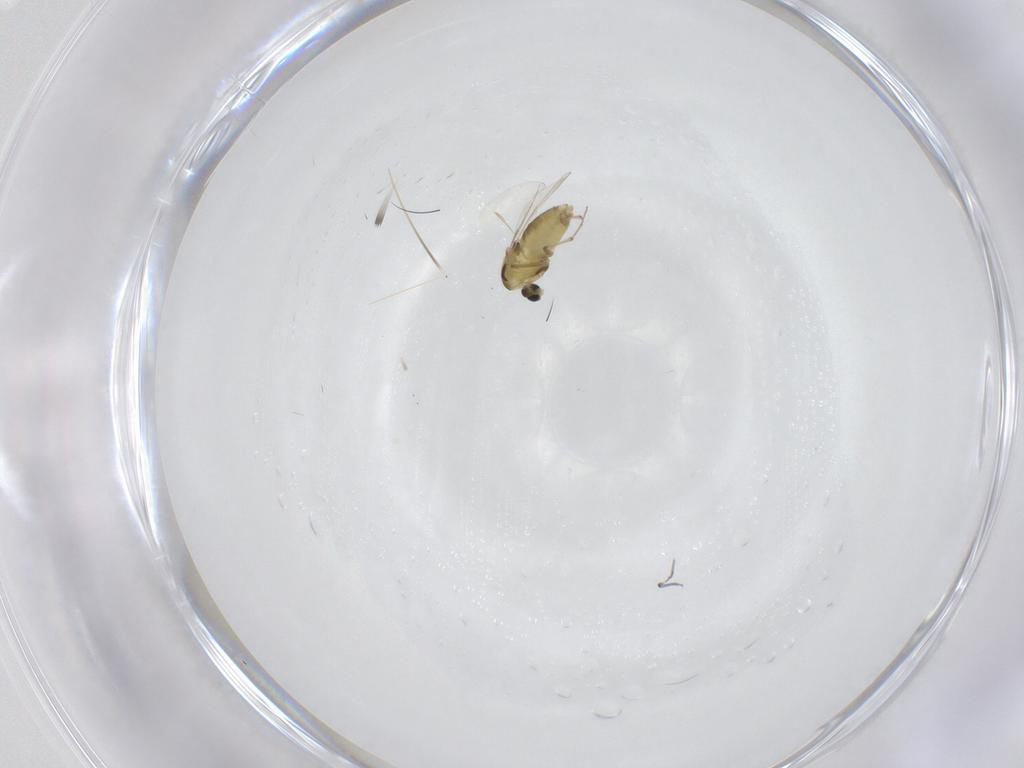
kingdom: Animalia
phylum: Arthropoda
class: Insecta
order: Diptera
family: Chironomidae
